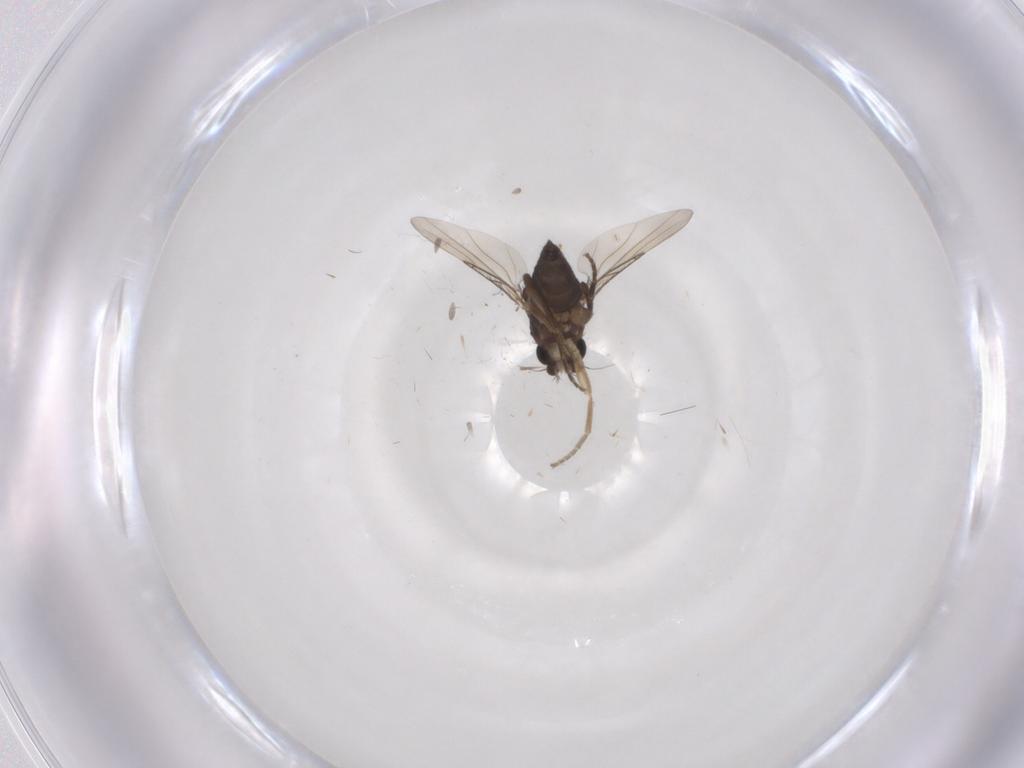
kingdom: Animalia
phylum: Arthropoda
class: Insecta
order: Diptera
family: Phoridae
